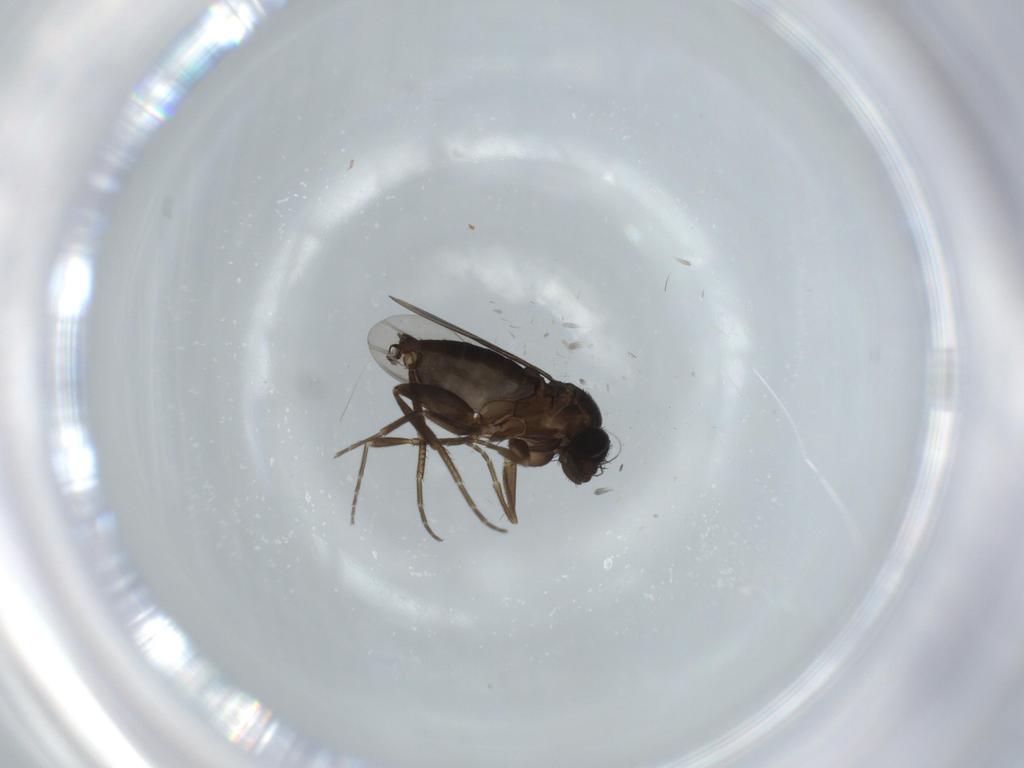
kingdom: Animalia
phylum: Arthropoda
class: Insecta
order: Diptera
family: Phoridae
